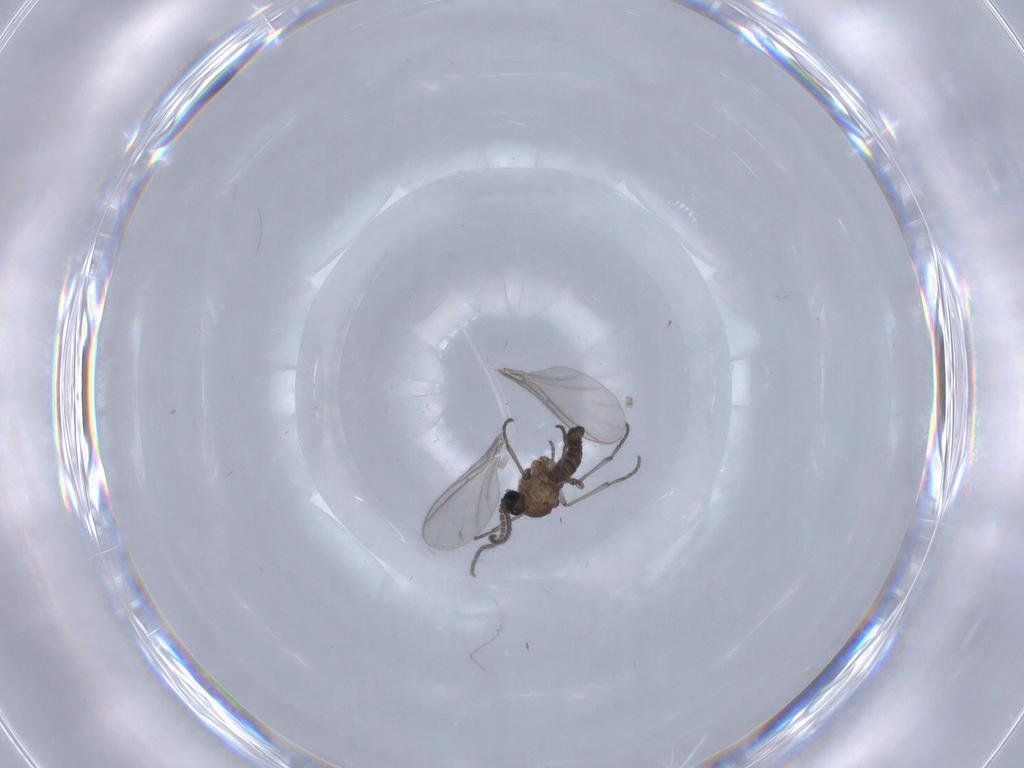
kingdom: Animalia
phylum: Arthropoda
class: Insecta
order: Diptera
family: Sciaridae
